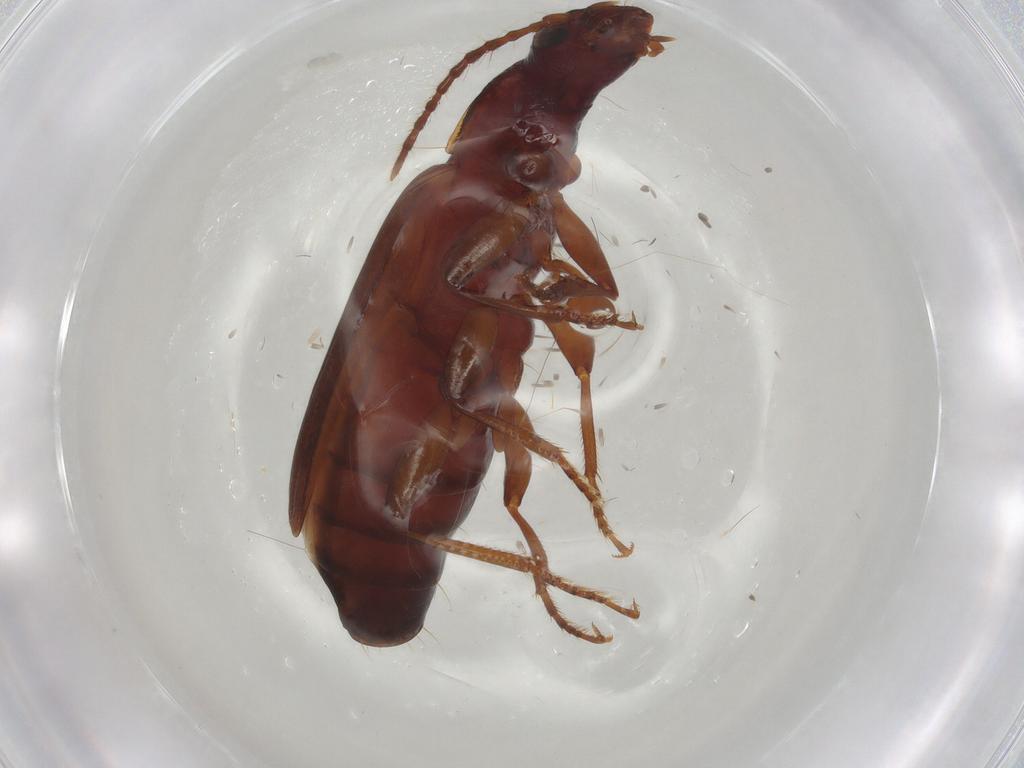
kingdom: Animalia
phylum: Arthropoda
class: Insecta
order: Coleoptera
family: Carabidae
